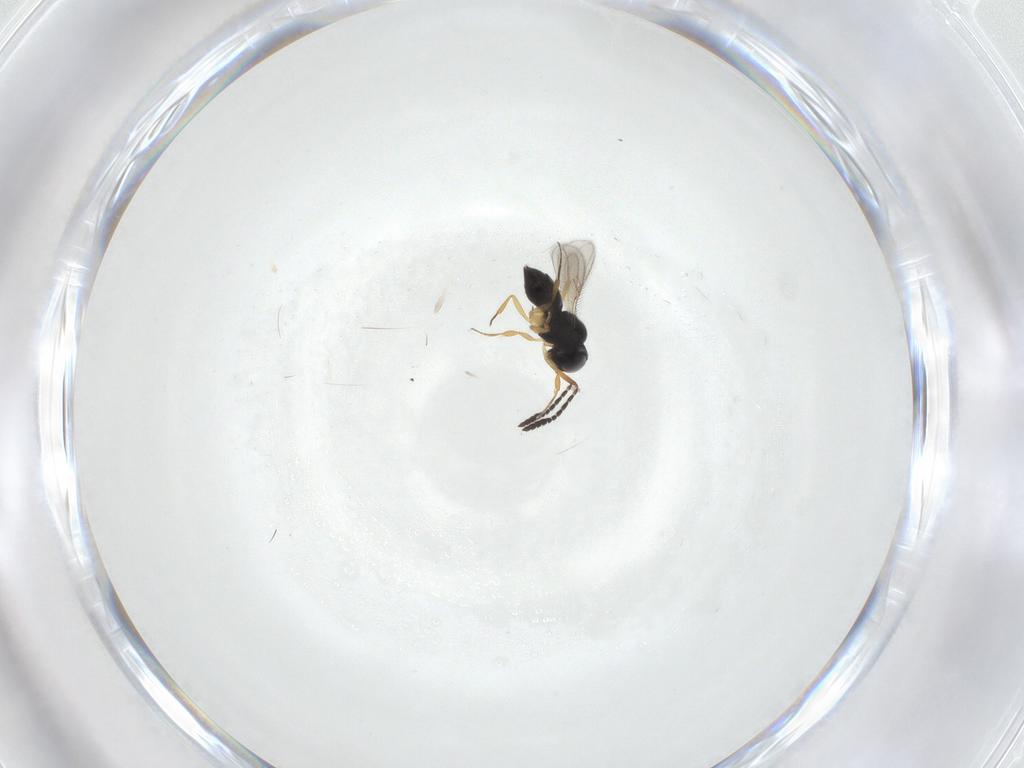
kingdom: Animalia
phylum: Arthropoda
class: Insecta
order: Hymenoptera
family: Scelionidae
